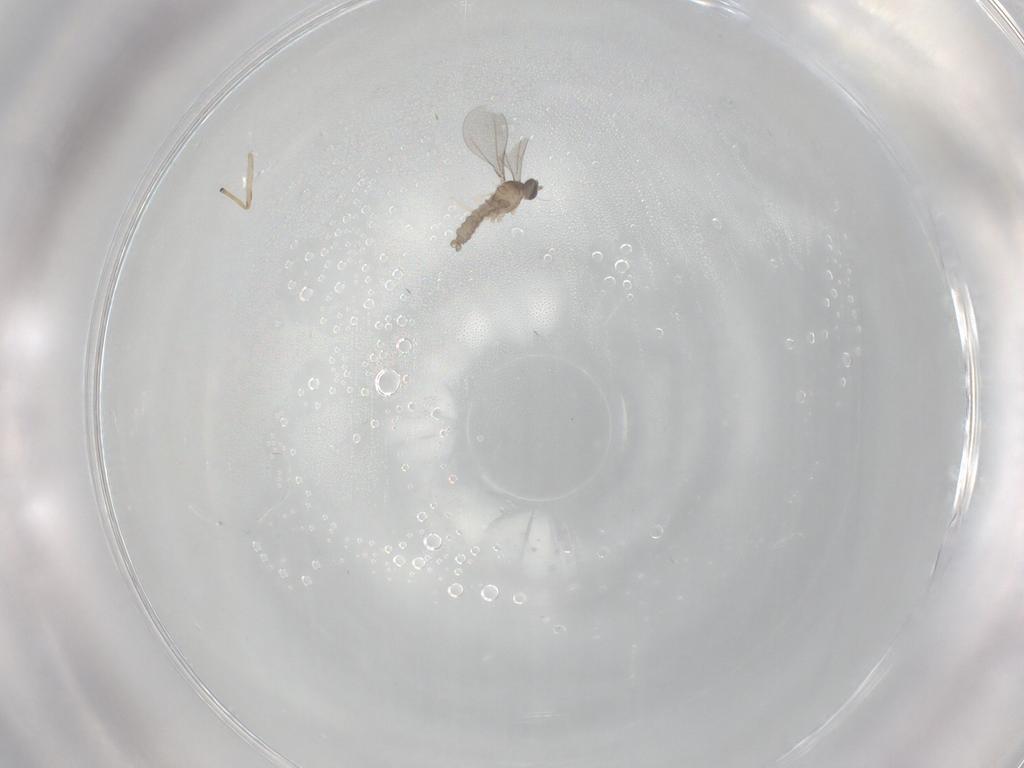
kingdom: Animalia
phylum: Arthropoda
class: Insecta
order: Diptera
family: Chironomidae
